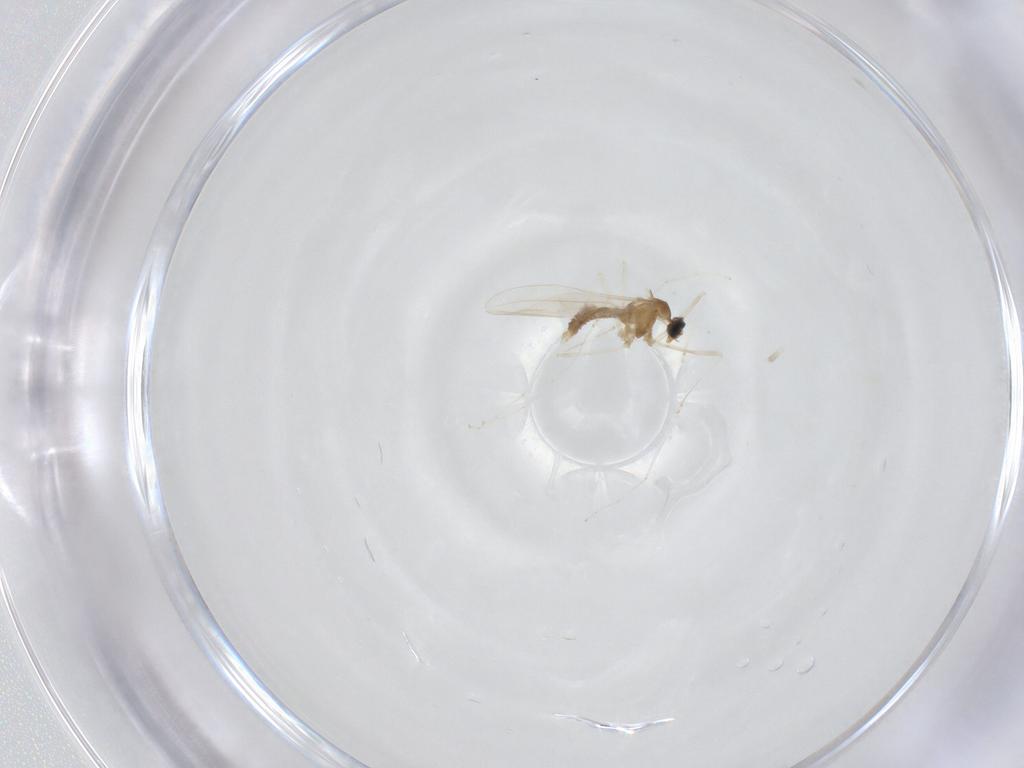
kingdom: Animalia
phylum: Arthropoda
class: Insecta
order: Diptera
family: Cecidomyiidae
